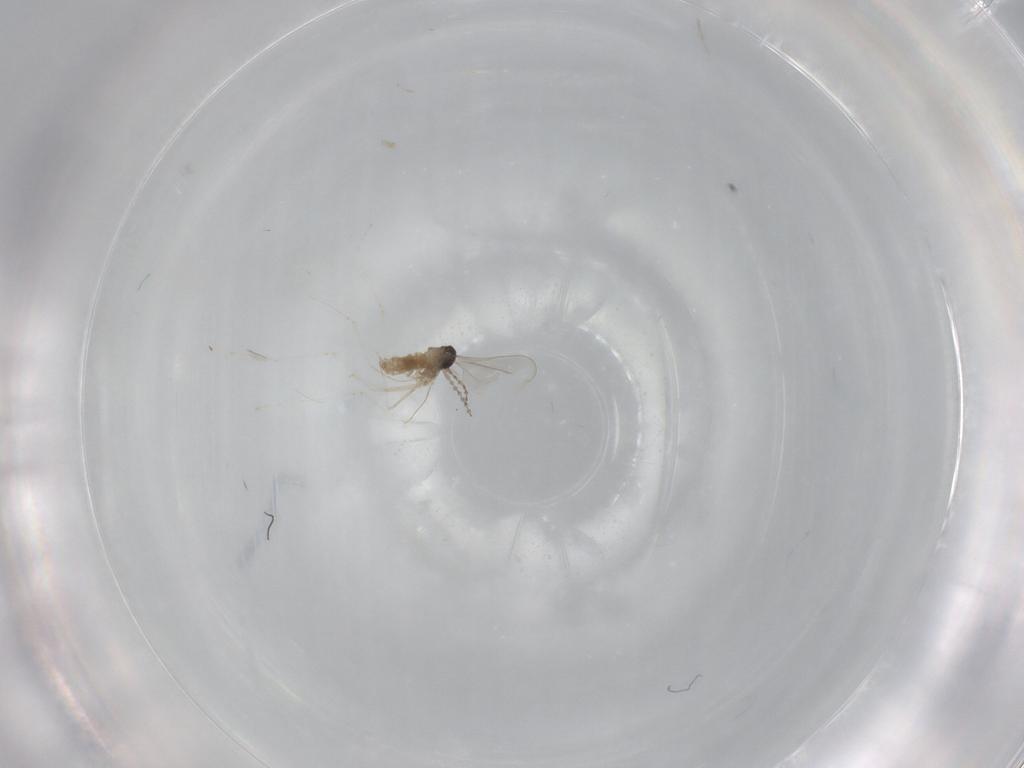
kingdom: Animalia
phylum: Arthropoda
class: Insecta
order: Diptera
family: Cecidomyiidae
